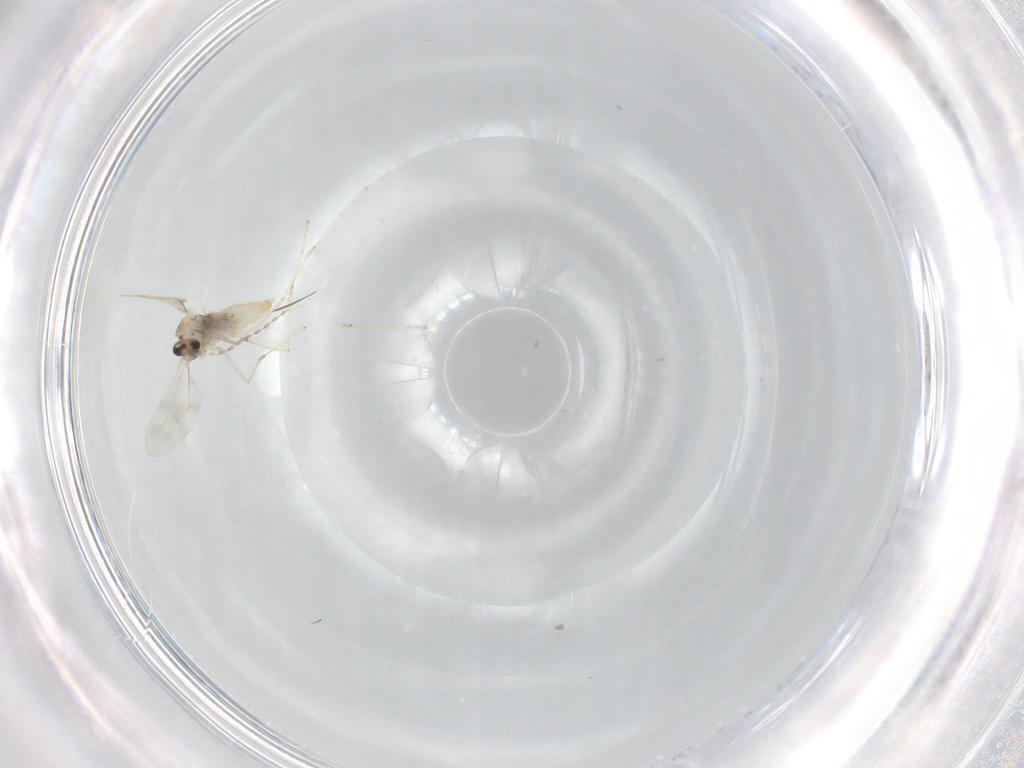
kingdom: Animalia
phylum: Arthropoda
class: Insecta
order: Diptera
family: Cecidomyiidae
